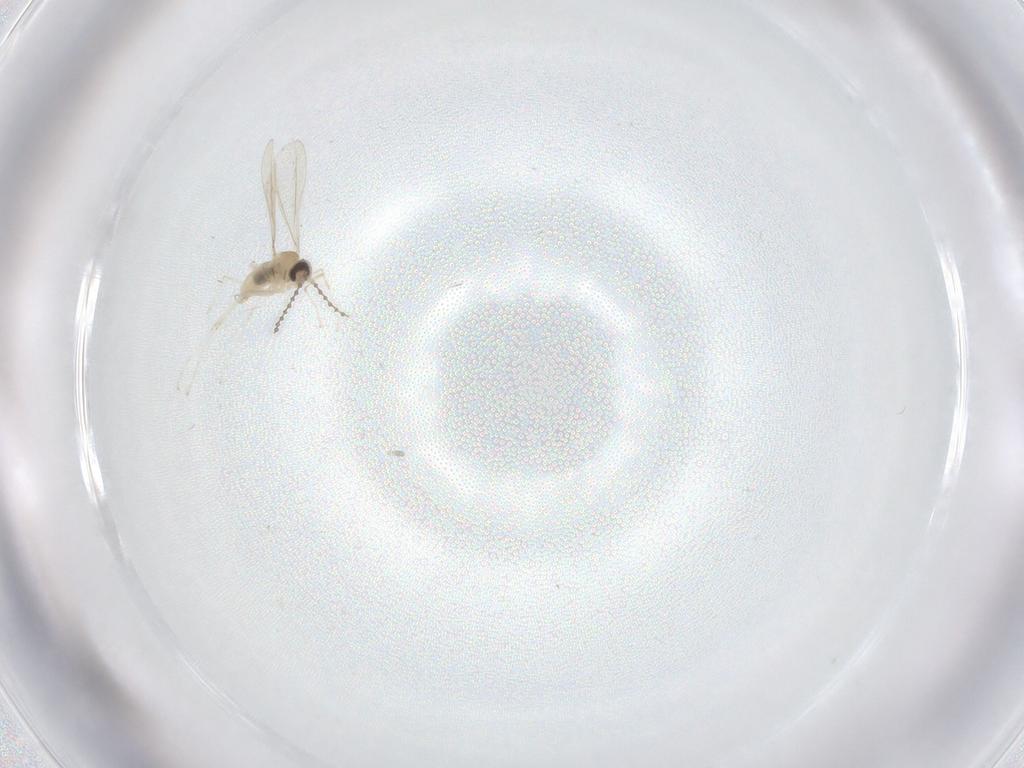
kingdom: Animalia
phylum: Arthropoda
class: Insecta
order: Diptera
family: Cecidomyiidae
